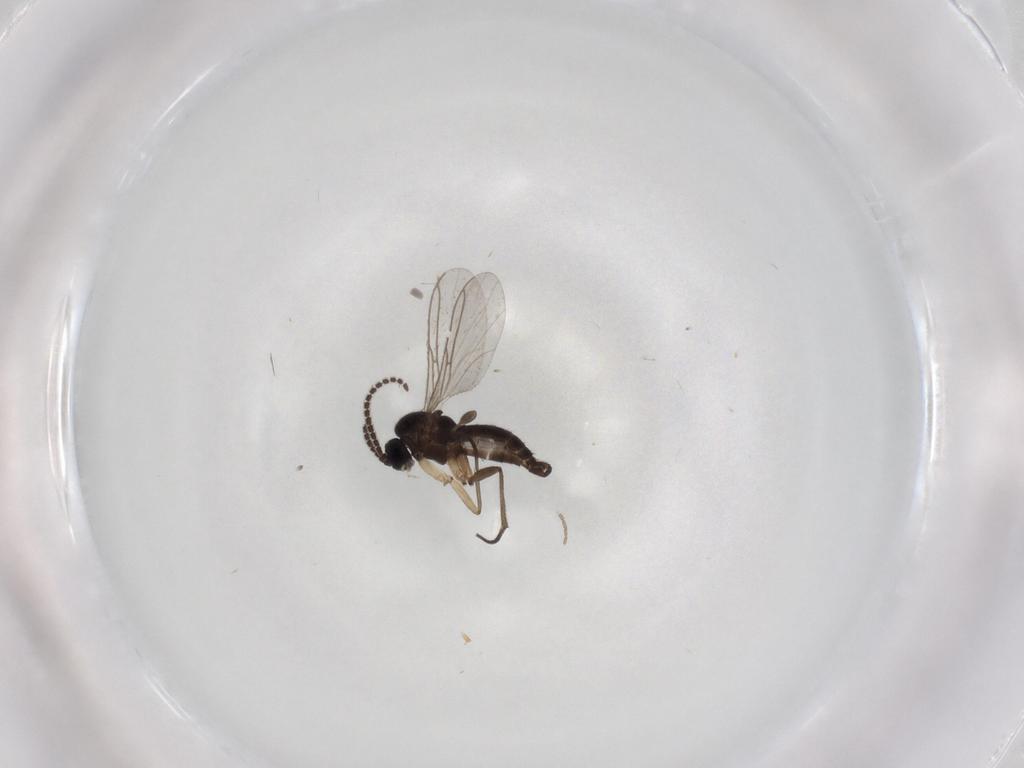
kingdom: Animalia
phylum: Arthropoda
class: Insecta
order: Diptera
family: Sciaridae
